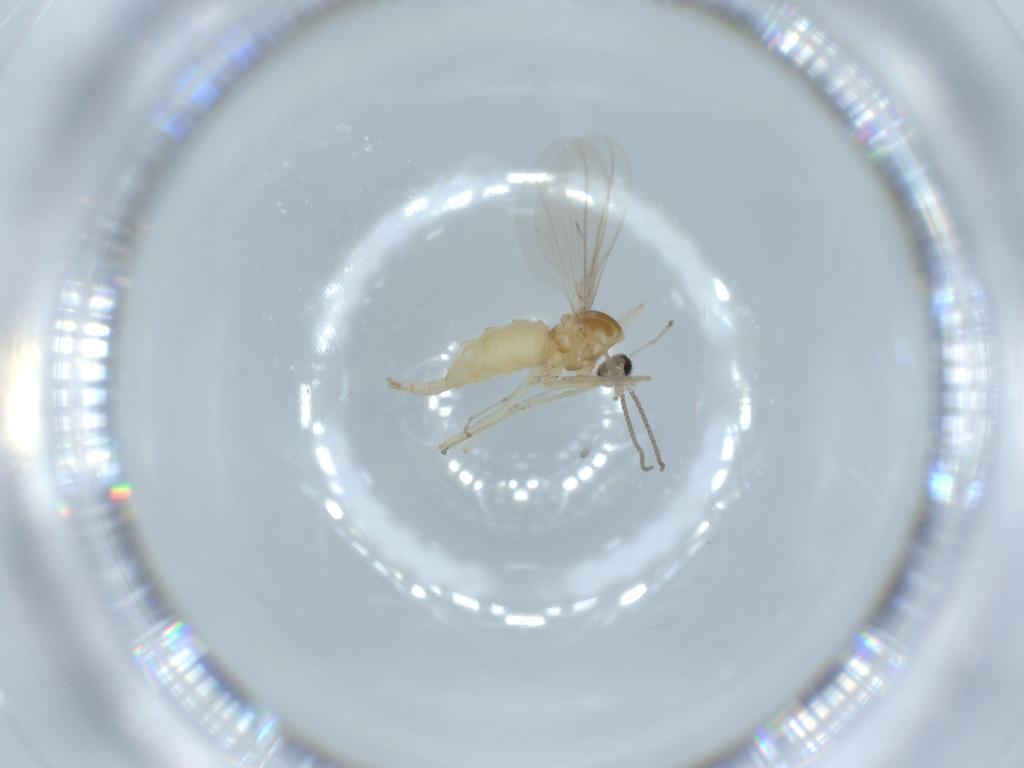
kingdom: Animalia
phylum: Arthropoda
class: Insecta
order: Diptera
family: Cecidomyiidae
